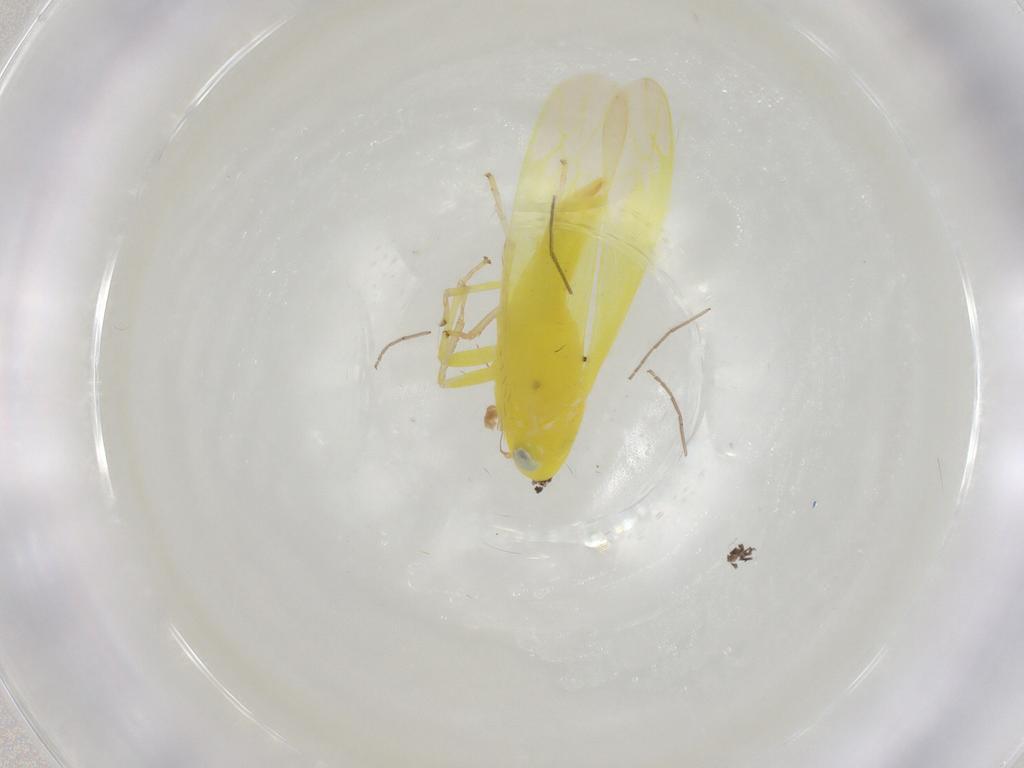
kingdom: Animalia
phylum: Arthropoda
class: Insecta
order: Hemiptera
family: Cicadellidae
